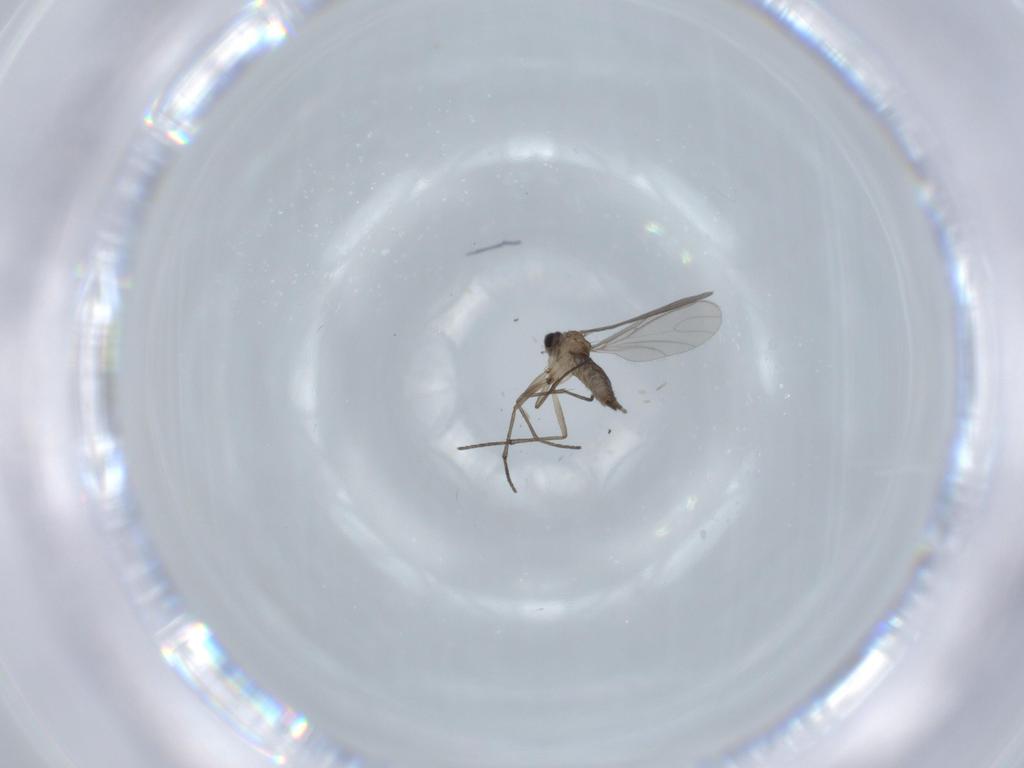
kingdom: Animalia
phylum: Arthropoda
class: Insecta
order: Diptera
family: Sciaridae
